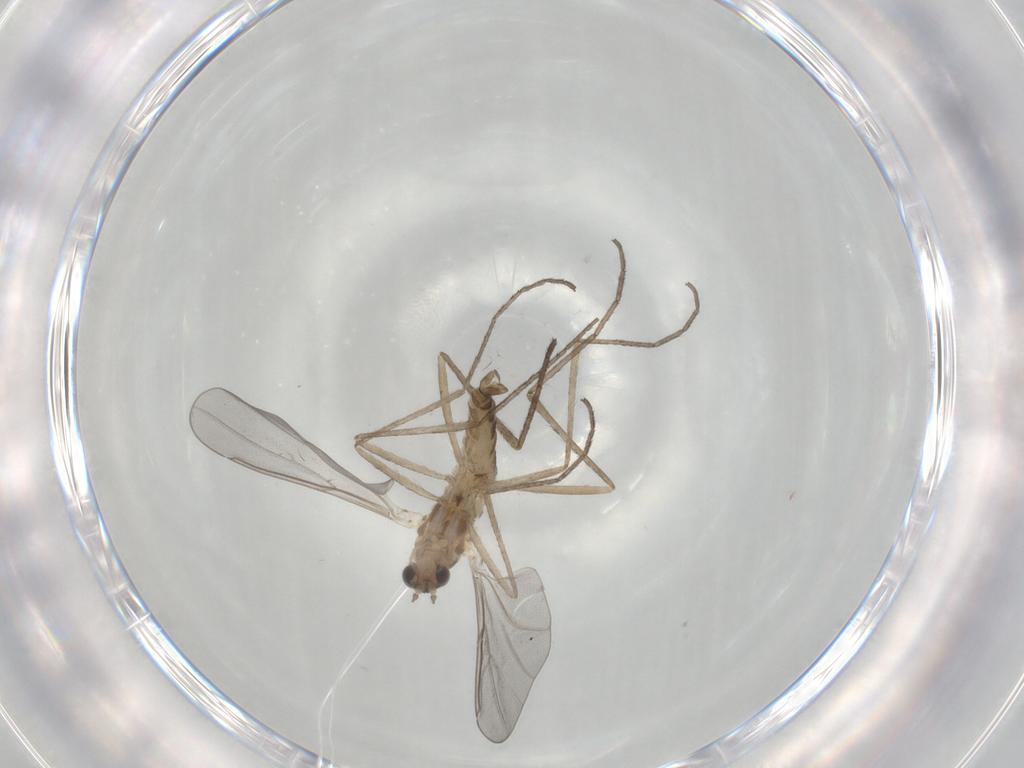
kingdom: Animalia
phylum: Arthropoda
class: Insecta
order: Diptera
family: Cecidomyiidae
